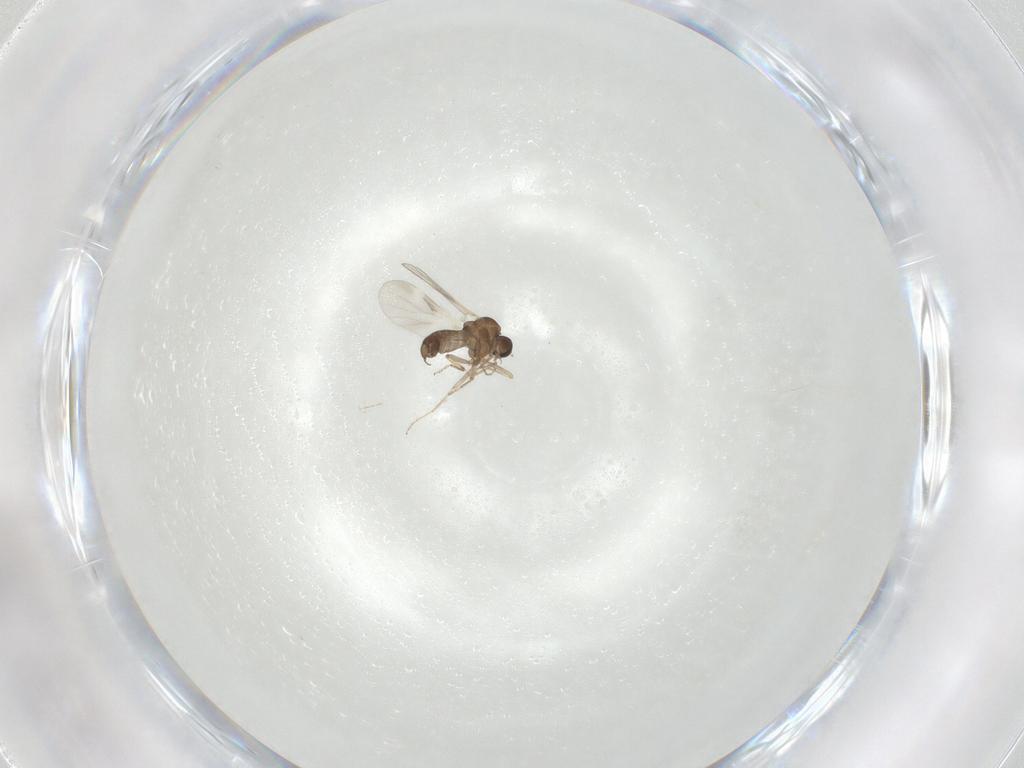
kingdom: Animalia
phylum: Arthropoda
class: Insecta
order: Diptera
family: Ceratopogonidae
